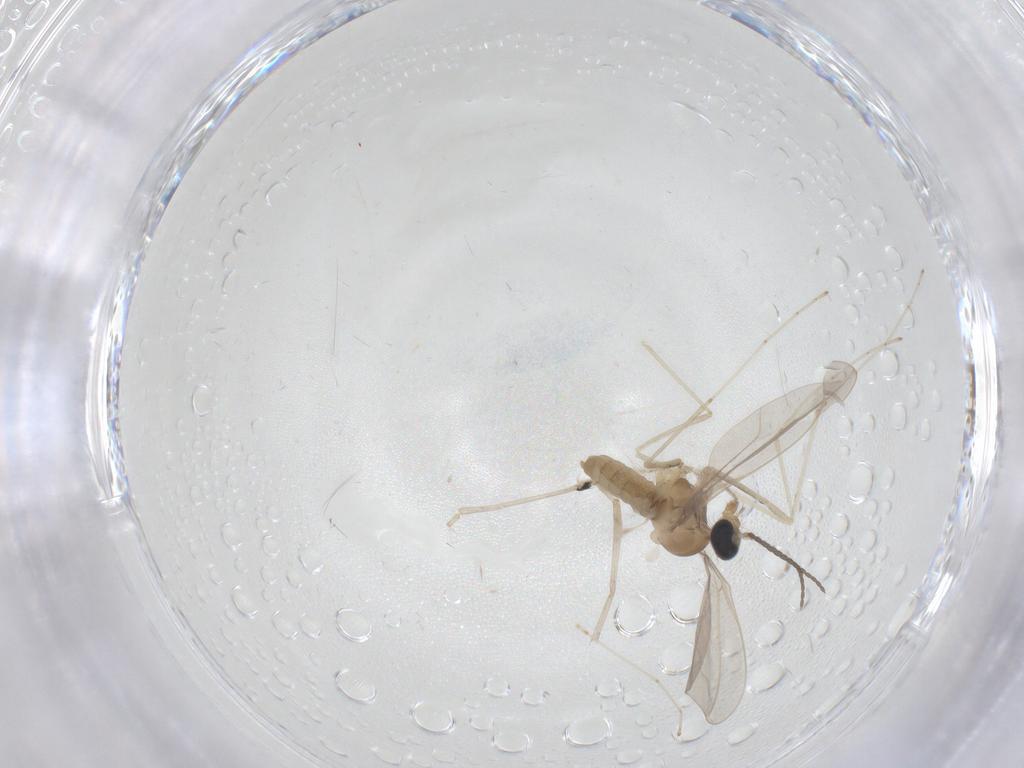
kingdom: Animalia
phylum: Arthropoda
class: Insecta
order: Diptera
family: Cecidomyiidae
